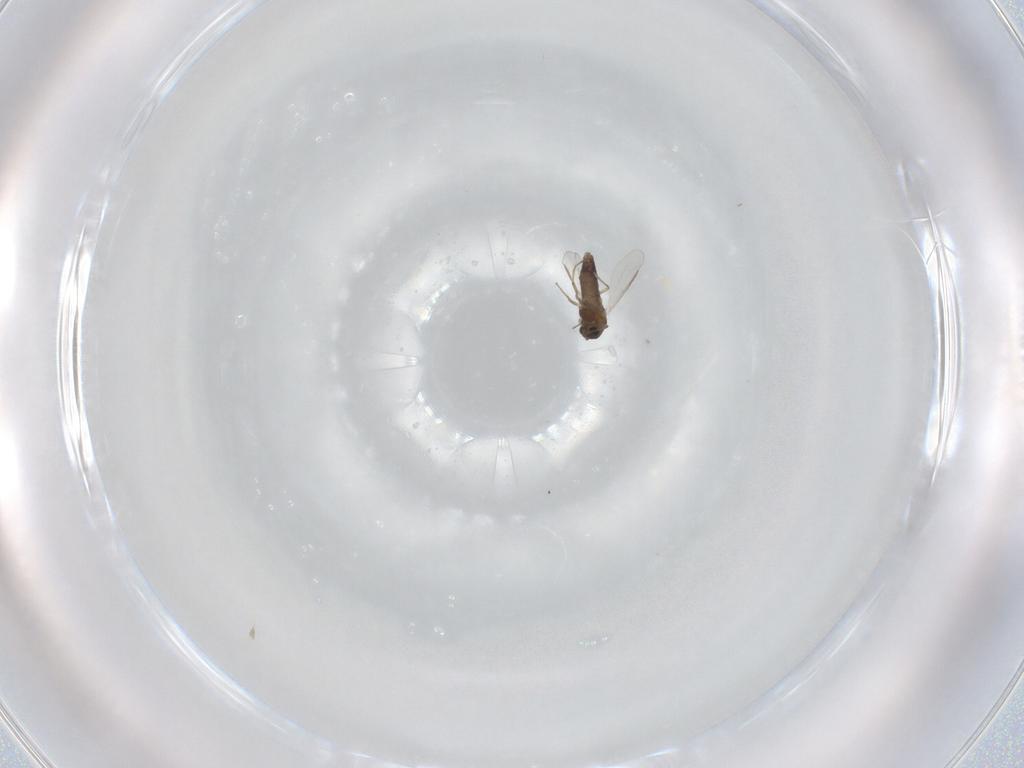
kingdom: Animalia
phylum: Arthropoda
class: Insecta
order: Diptera
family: Chironomidae
